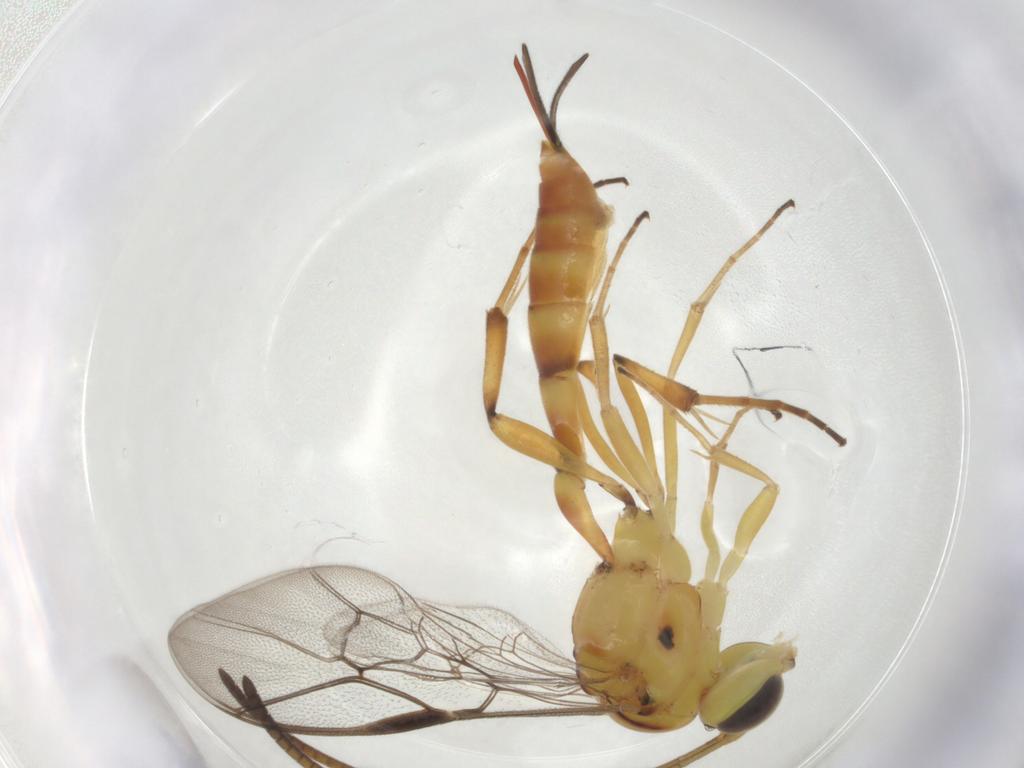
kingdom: Animalia
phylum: Arthropoda
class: Insecta
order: Hymenoptera
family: Ichneumonidae
